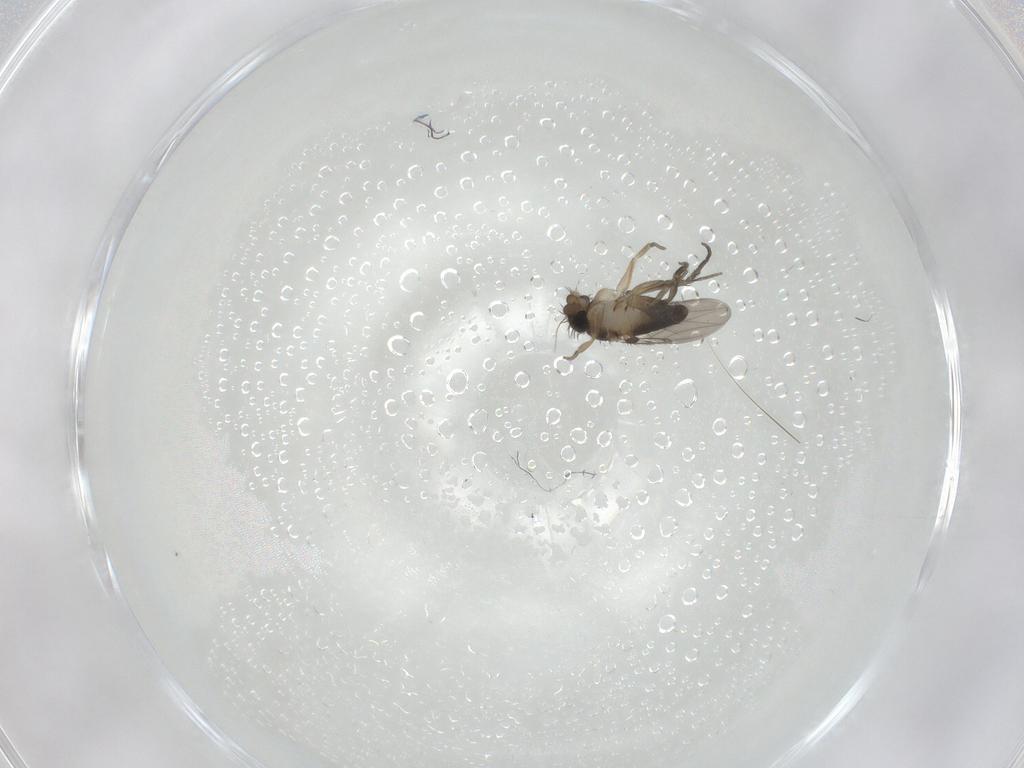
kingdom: Animalia
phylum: Arthropoda
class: Insecta
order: Diptera
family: Phoridae
